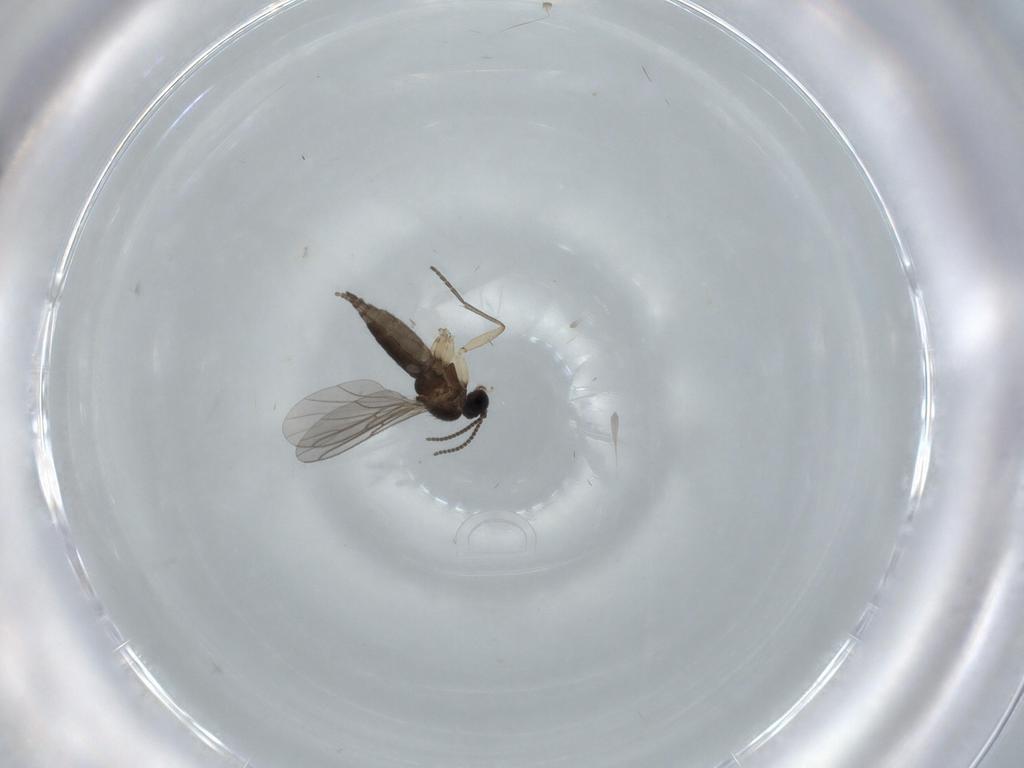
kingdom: Animalia
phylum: Arthropoda
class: Insecta
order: Diptera
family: Sciaridae
